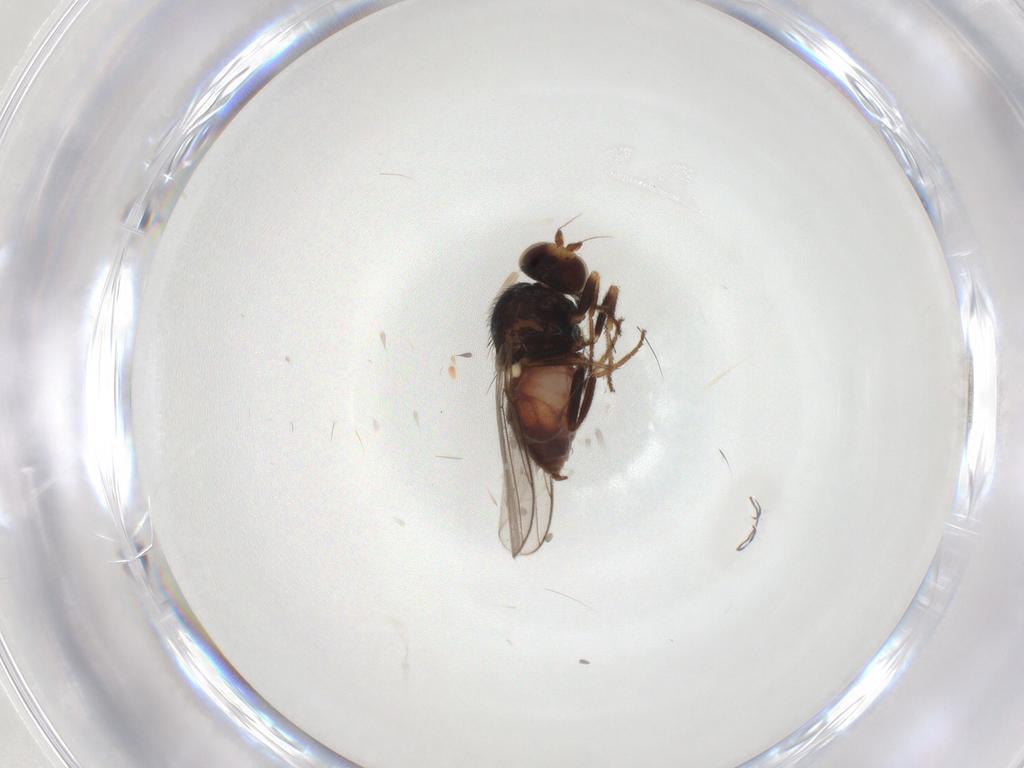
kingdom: Animalia
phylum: Arthropoda
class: Insecta
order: Diptera
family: Chloropidae
